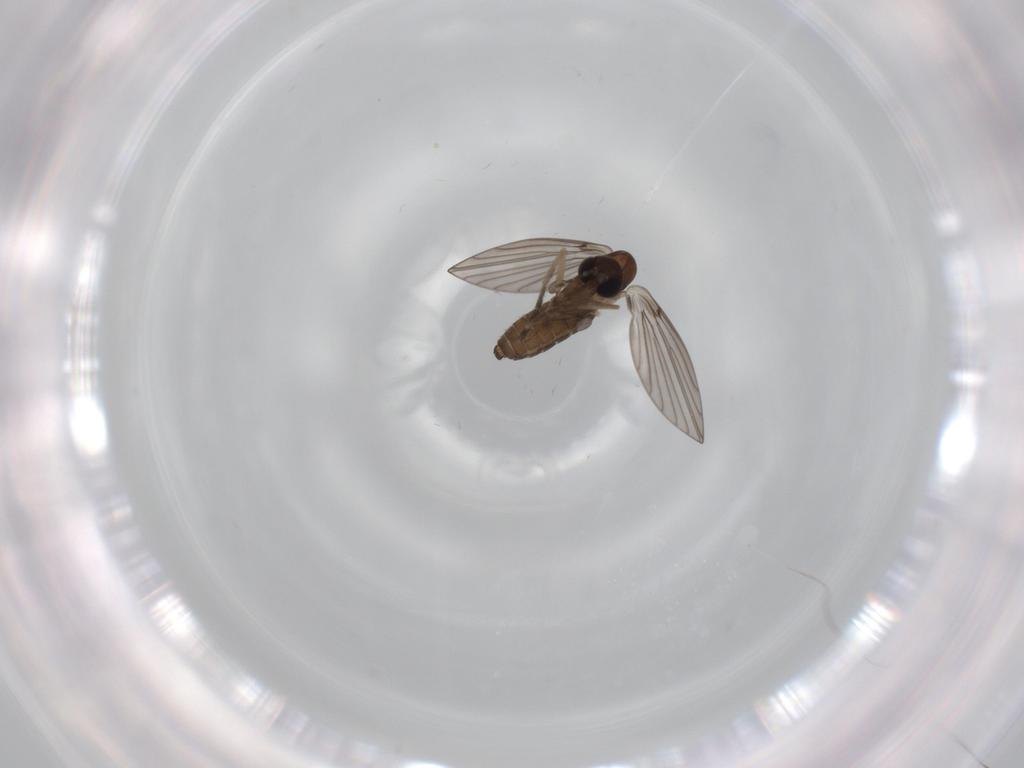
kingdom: Animalia
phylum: Arthropoda
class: Insecta
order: Diptera
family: Psychodidae
